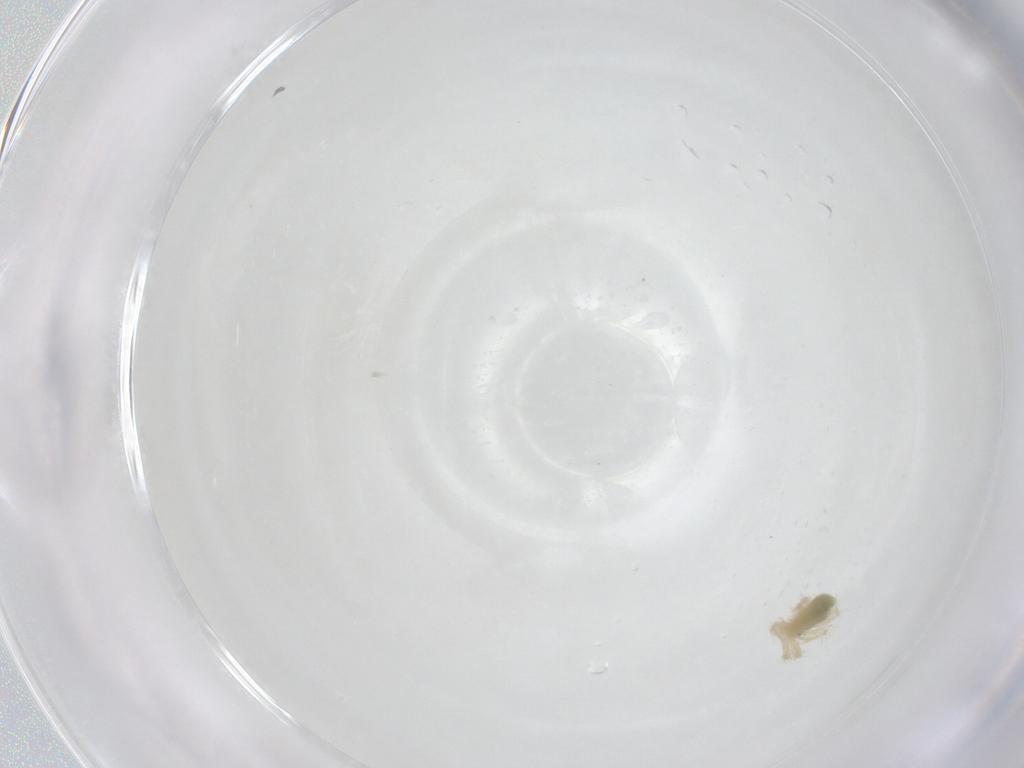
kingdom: Animalia
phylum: Arthropoda
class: Arachnida
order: Trombidiformes
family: Anystidae
